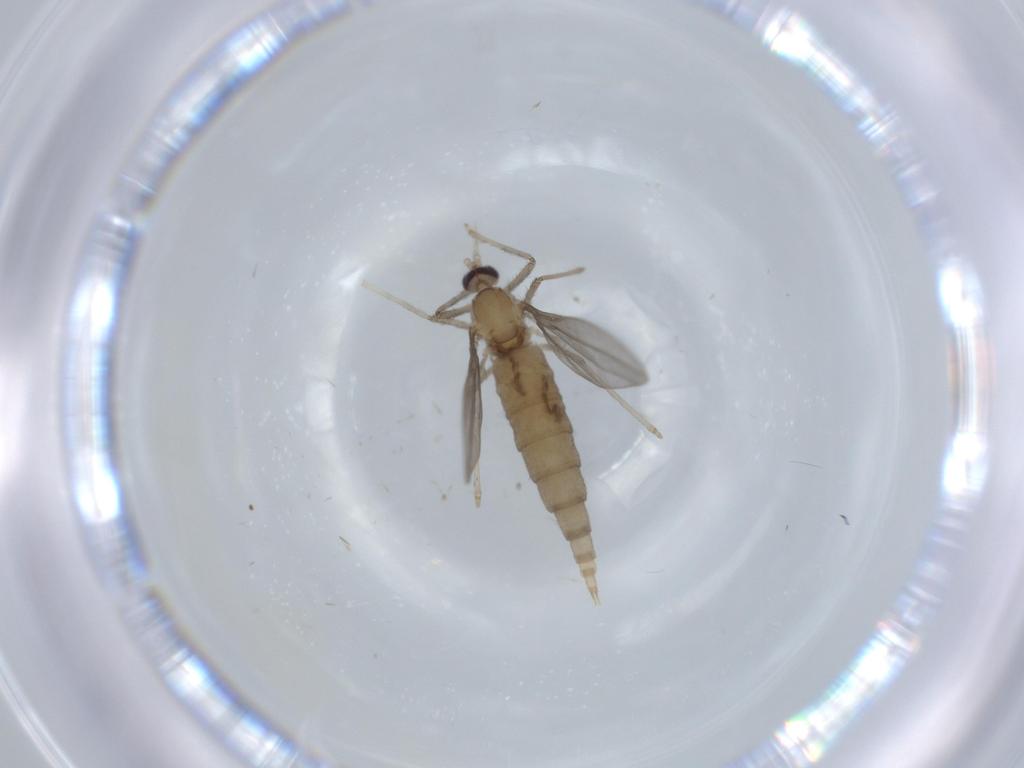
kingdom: Animalia
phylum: Arthropoda
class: Insecta
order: Diptera
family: Cecidomyiidae
